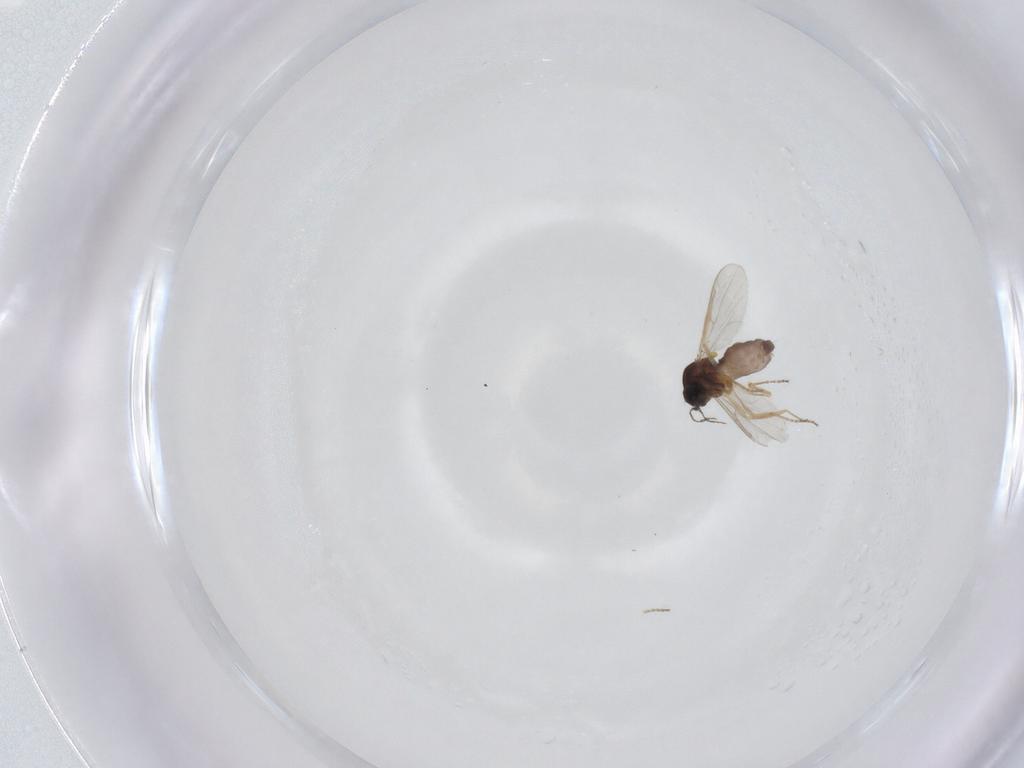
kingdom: Animalia
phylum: Arthropoda
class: Insecta
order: Diptera
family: Ceratopogonidae
